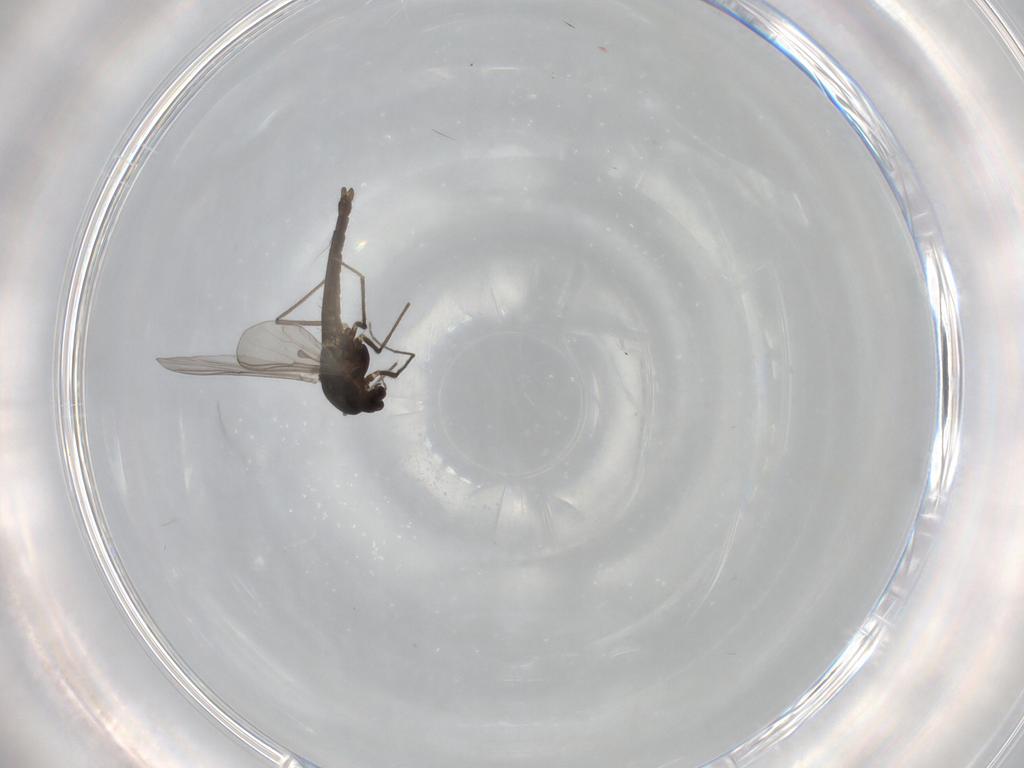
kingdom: Animalia
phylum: Arthropoda
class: Insecta
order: Diptera
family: Chironomidae
